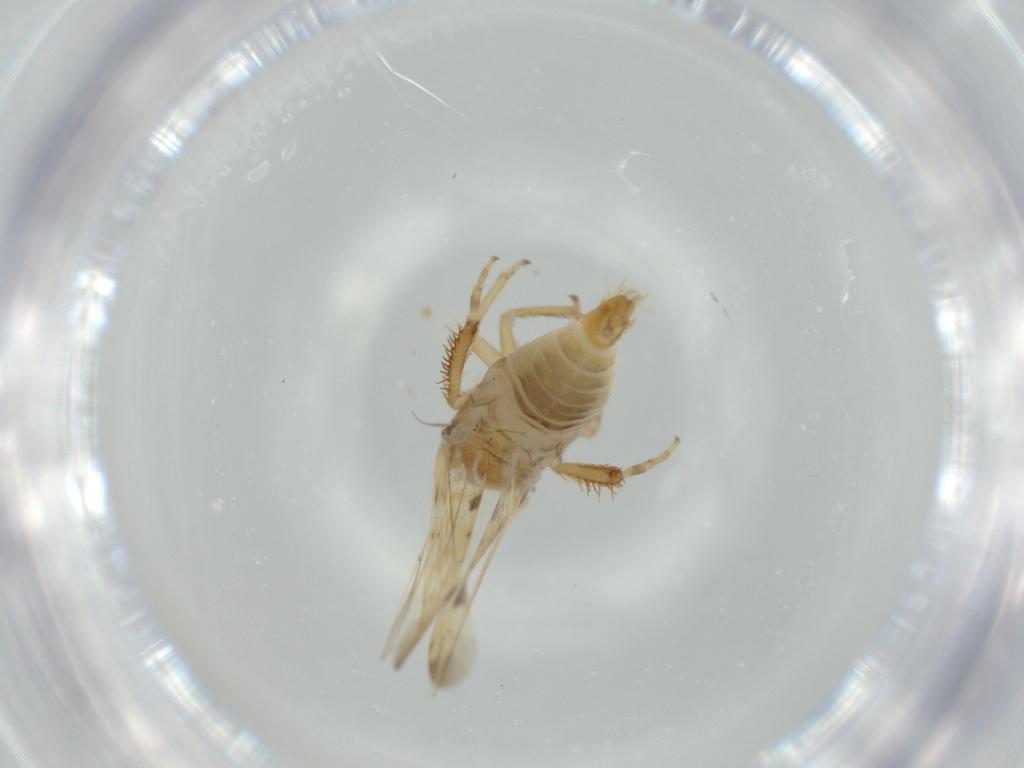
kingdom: Animalia
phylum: Arthropoda
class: Insecta
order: Hemiptera
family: Cicadellidae
